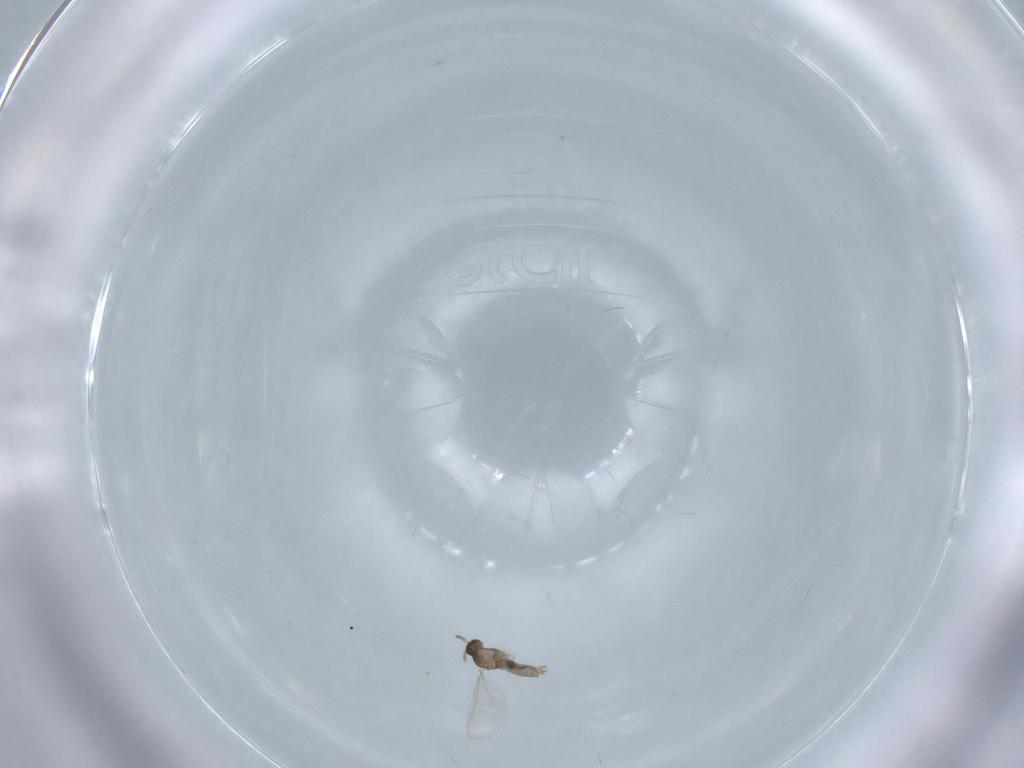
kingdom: Animalia
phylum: Arthropoda
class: Insecta
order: Diptera
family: Cecidomyiidae
